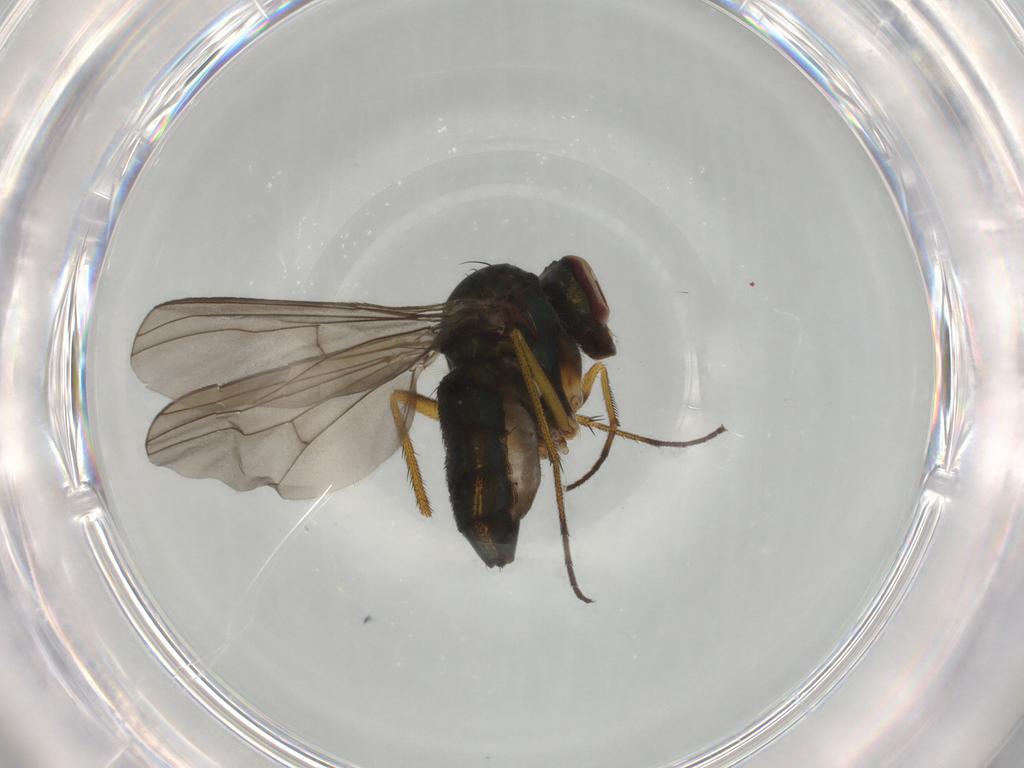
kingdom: Animalia
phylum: Arthropoda
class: Insecta
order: Diptera
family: Dolichopodidae
